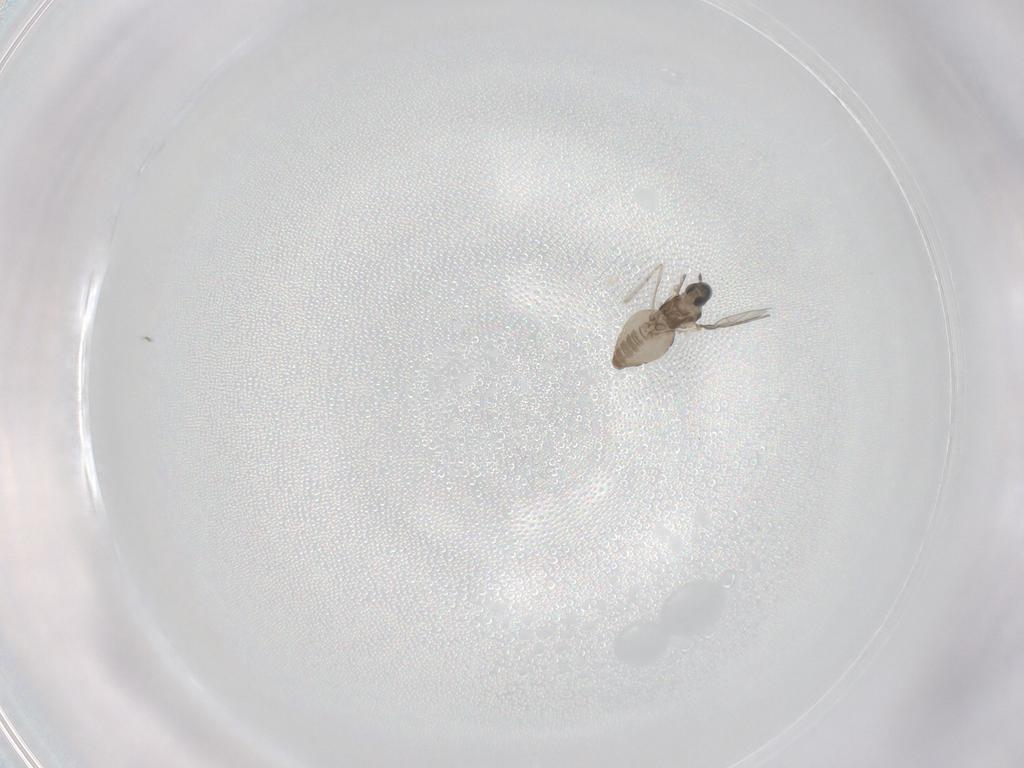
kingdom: Animalia
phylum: Arthropoda
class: Insecta
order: Diptera
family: Cecidomyiidae
